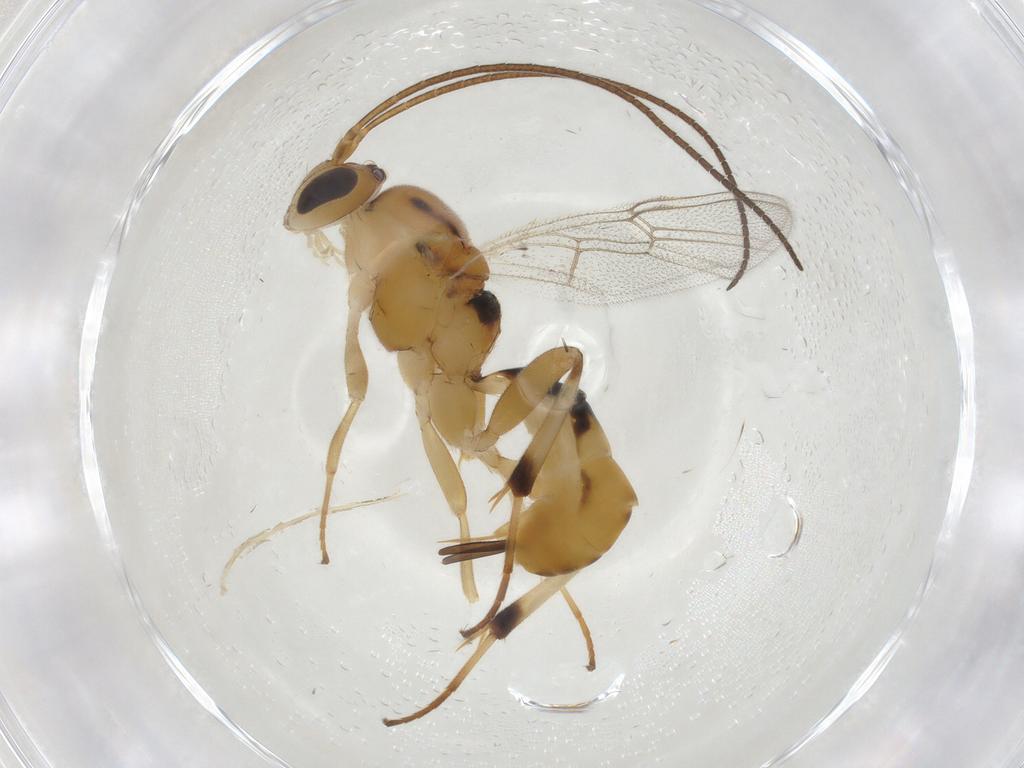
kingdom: Animalia
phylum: Arthropoda
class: Insecta
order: Hymenoptera
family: Ichneumonidae
